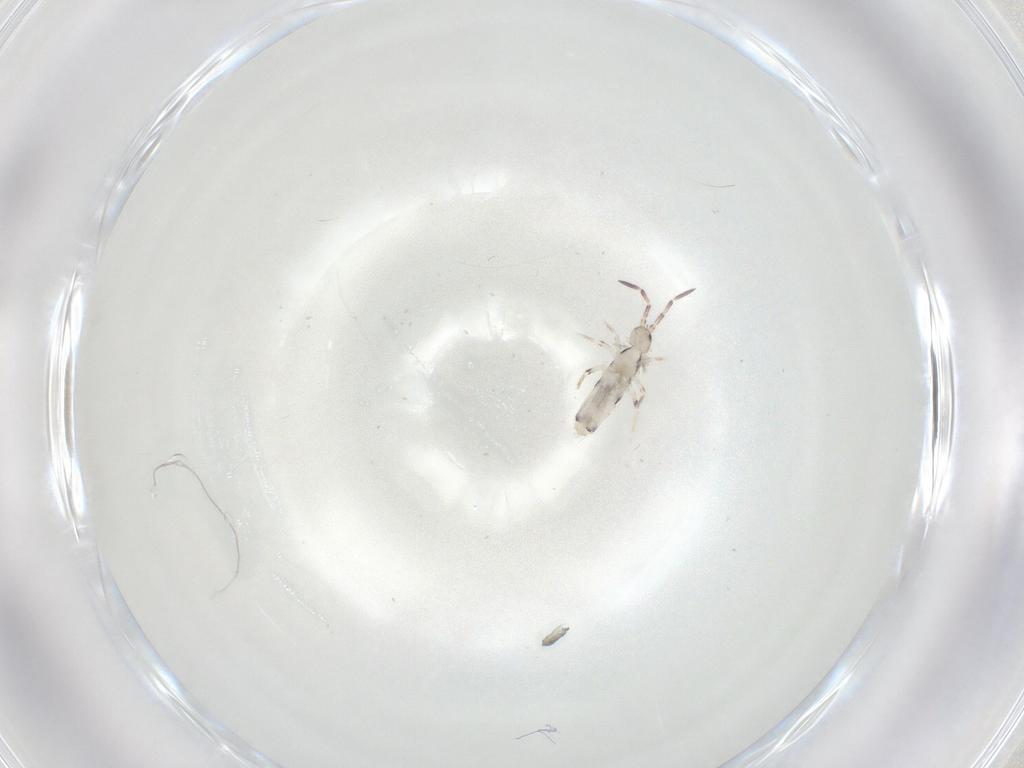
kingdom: Animalia
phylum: Arthropoda
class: Collembola
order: Entomobryomorpha
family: Entomobryidae
